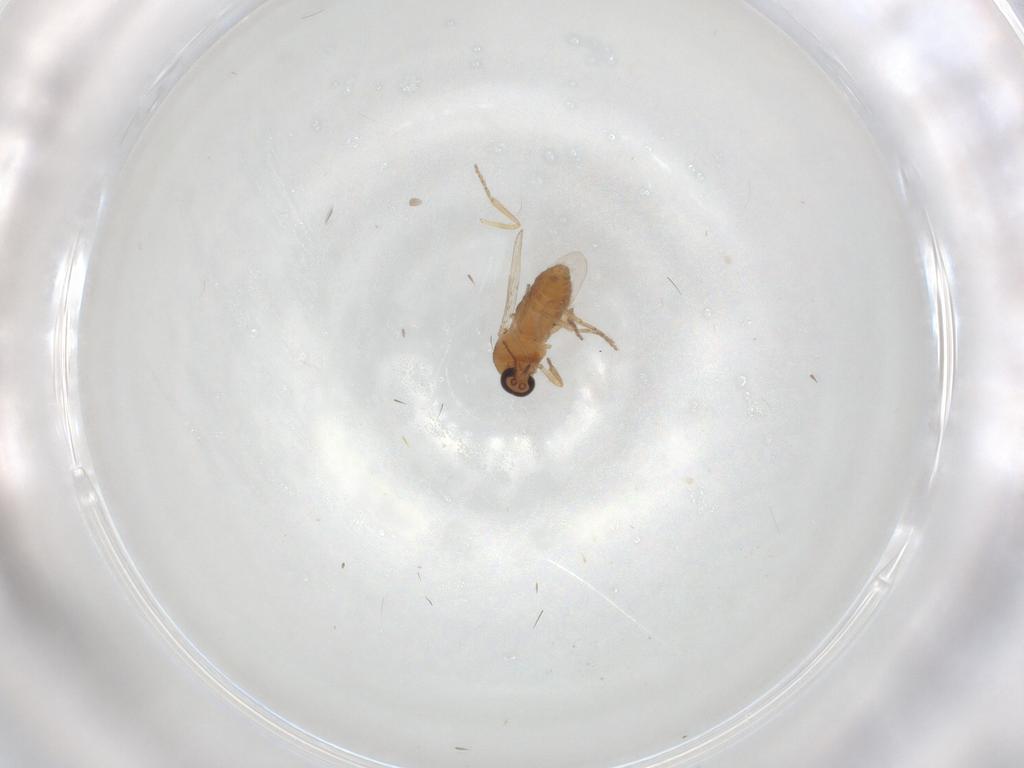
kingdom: Animalia
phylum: Arthropoda
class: Insecta
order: Diptera
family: Ceratopogonidae
